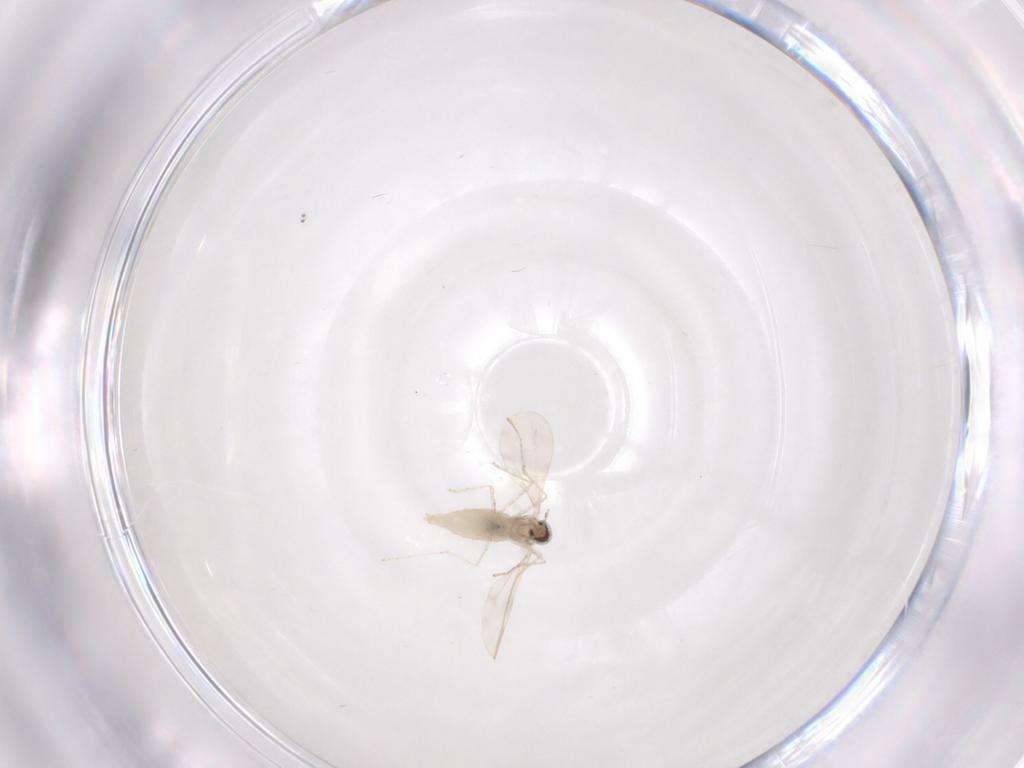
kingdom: Animalia
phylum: Arthropoda
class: Insecta
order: Diptera
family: Psychodidae
